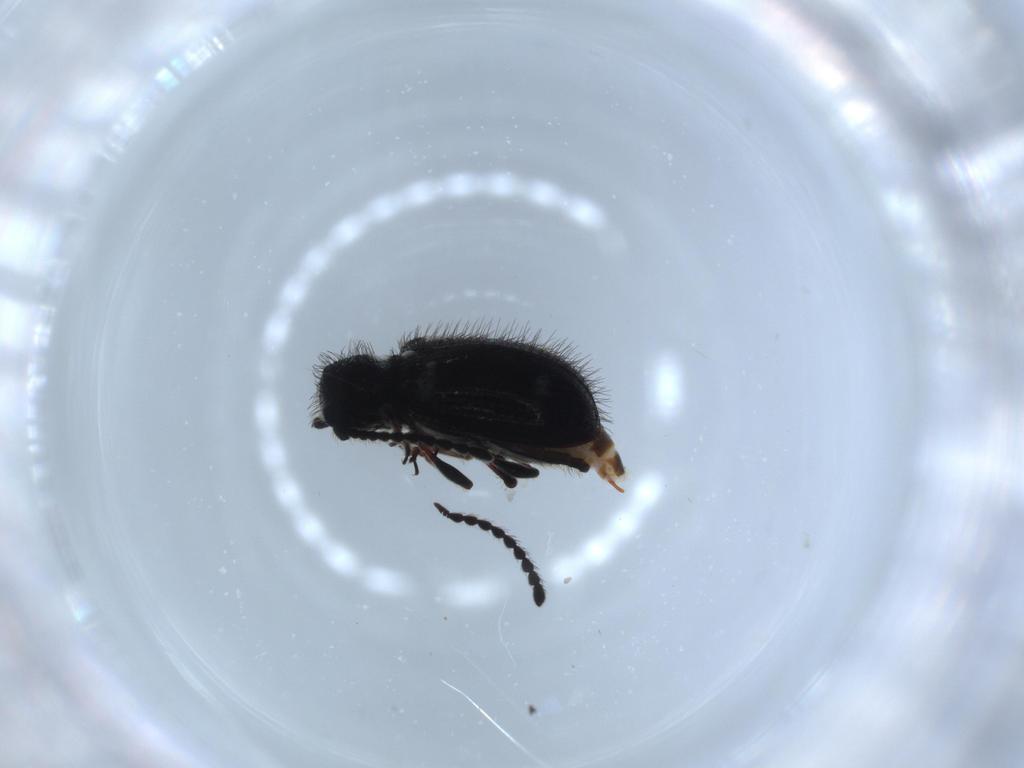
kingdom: Animalia
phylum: Arthropoda
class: Insecta
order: Coleoptera
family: Ptinidae
